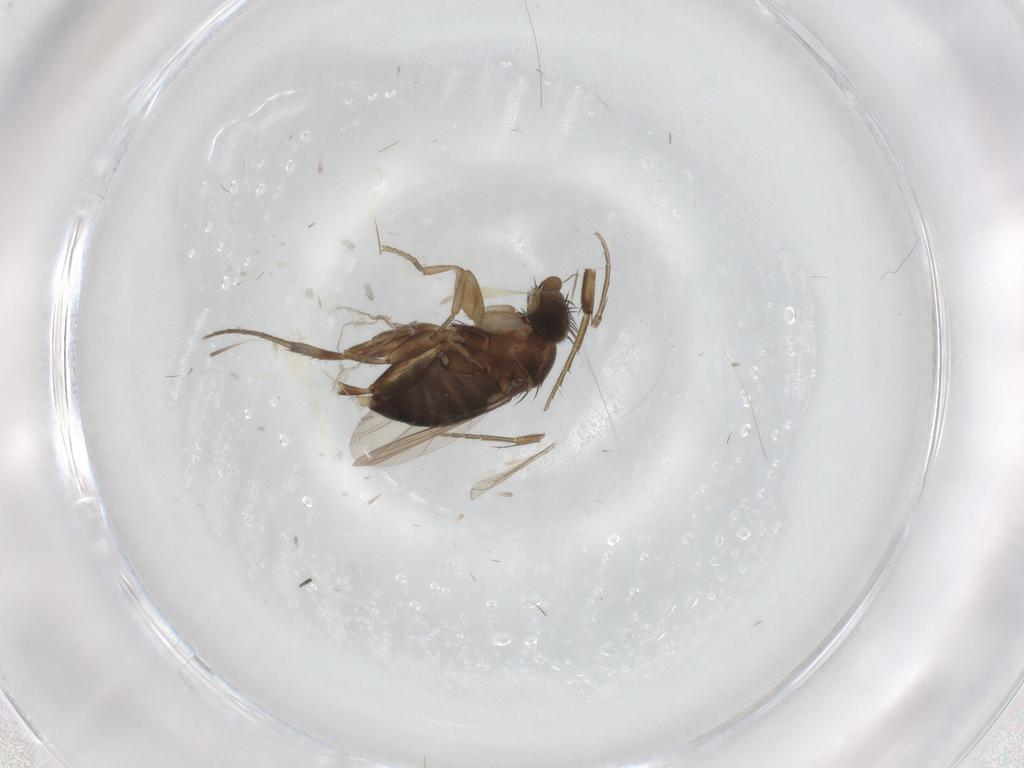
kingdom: Animalia
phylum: Arthropoda
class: Insecta
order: Diptera
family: Phoridae
